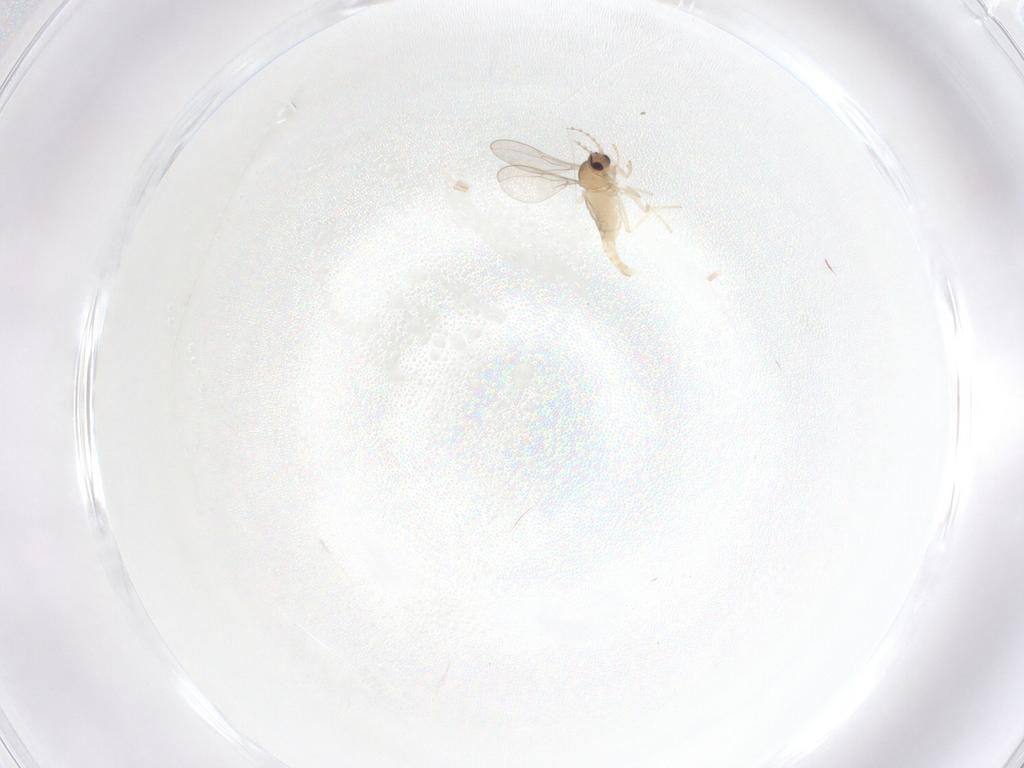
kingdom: Animalia
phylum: Arthropoda
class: Insecta
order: Diptera
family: Cecidomyiidae
